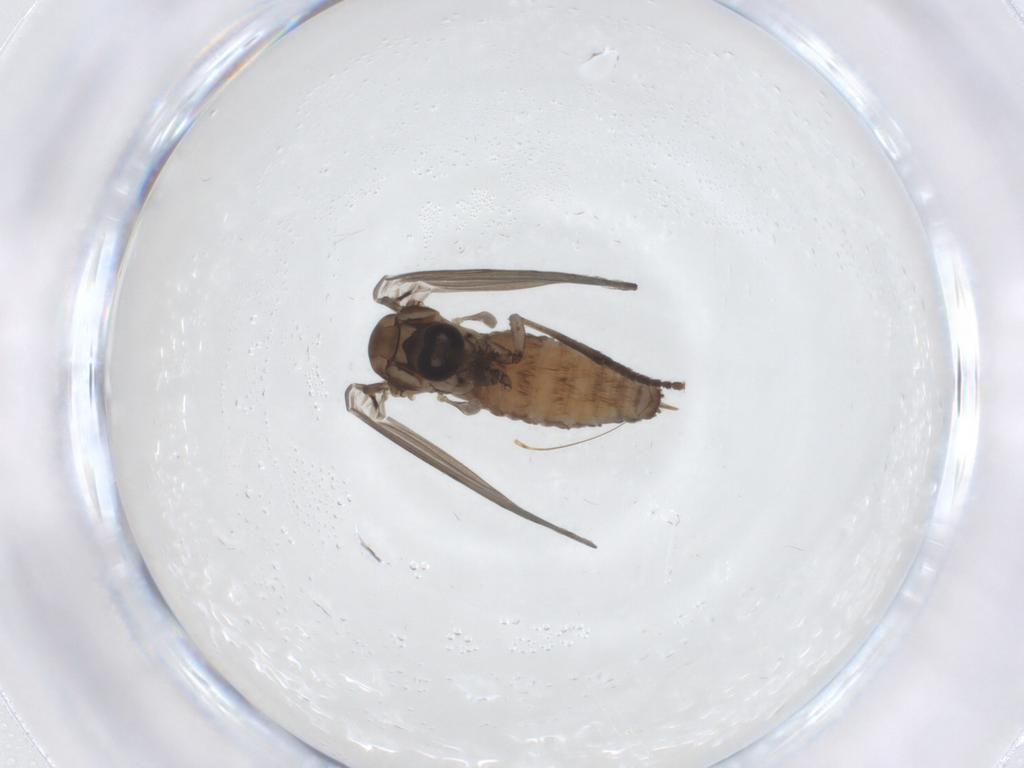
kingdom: Animalia
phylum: Arthropoda
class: Insecta
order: Diptera
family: Psychodidae
